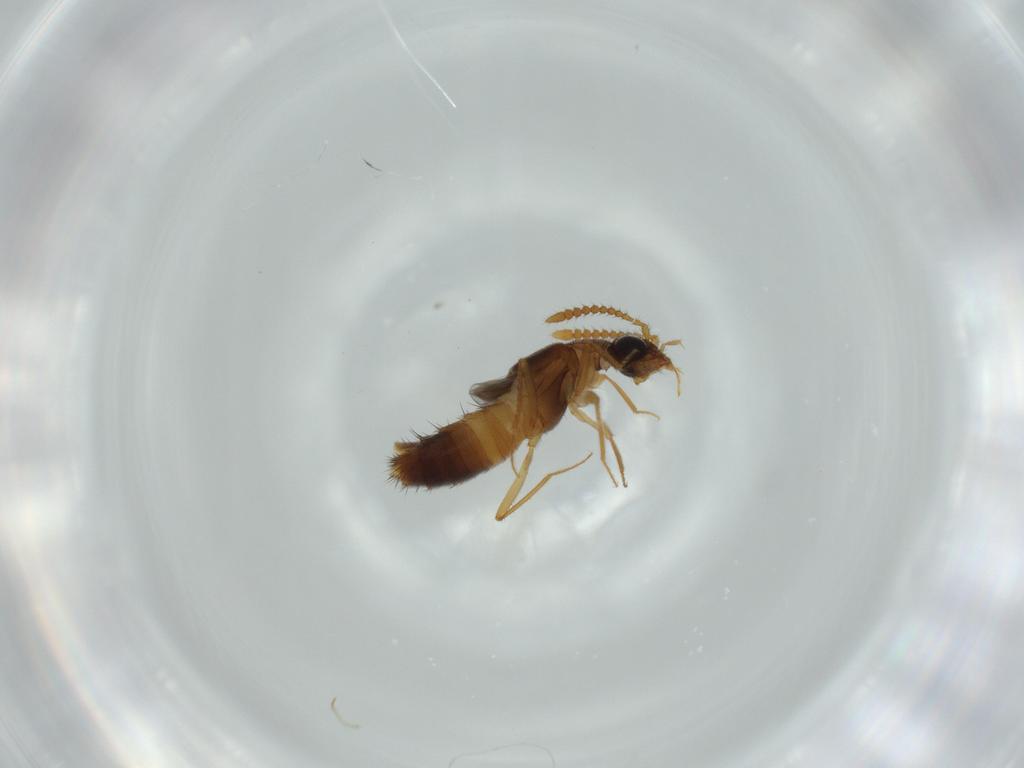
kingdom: Animalia
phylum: Arthropoda
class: Insecta
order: Coleoptera
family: Staphylinidae
